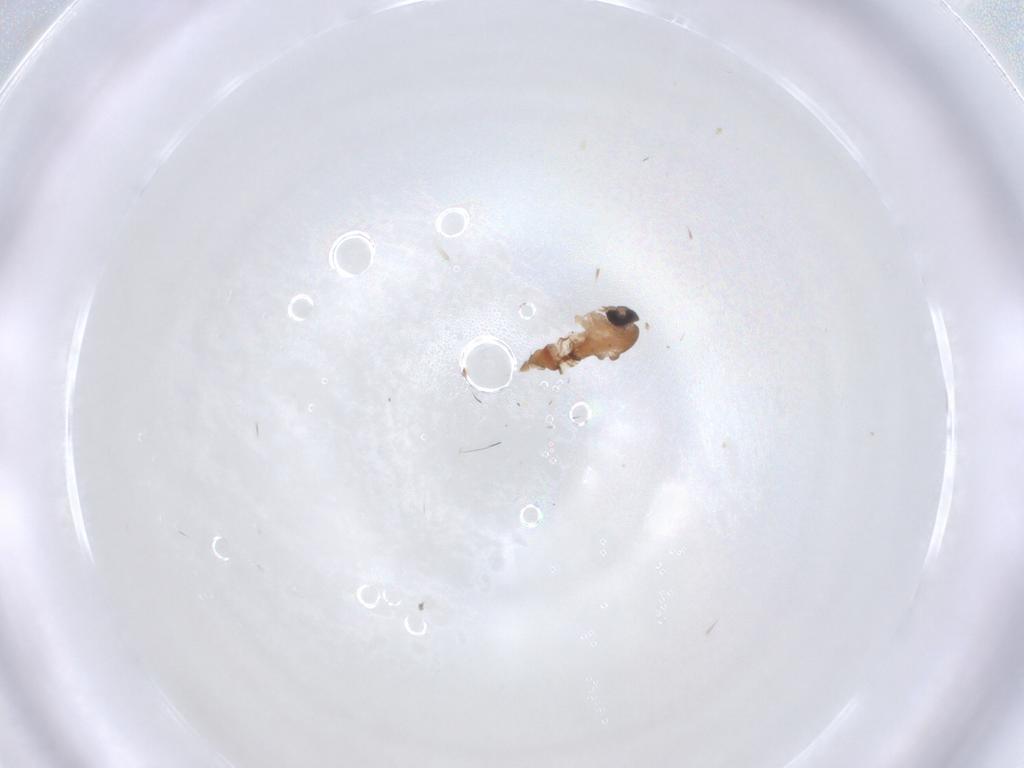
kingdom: Animalia
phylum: Arthropoda
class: Insecta
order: Diptera
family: Psychodidae
